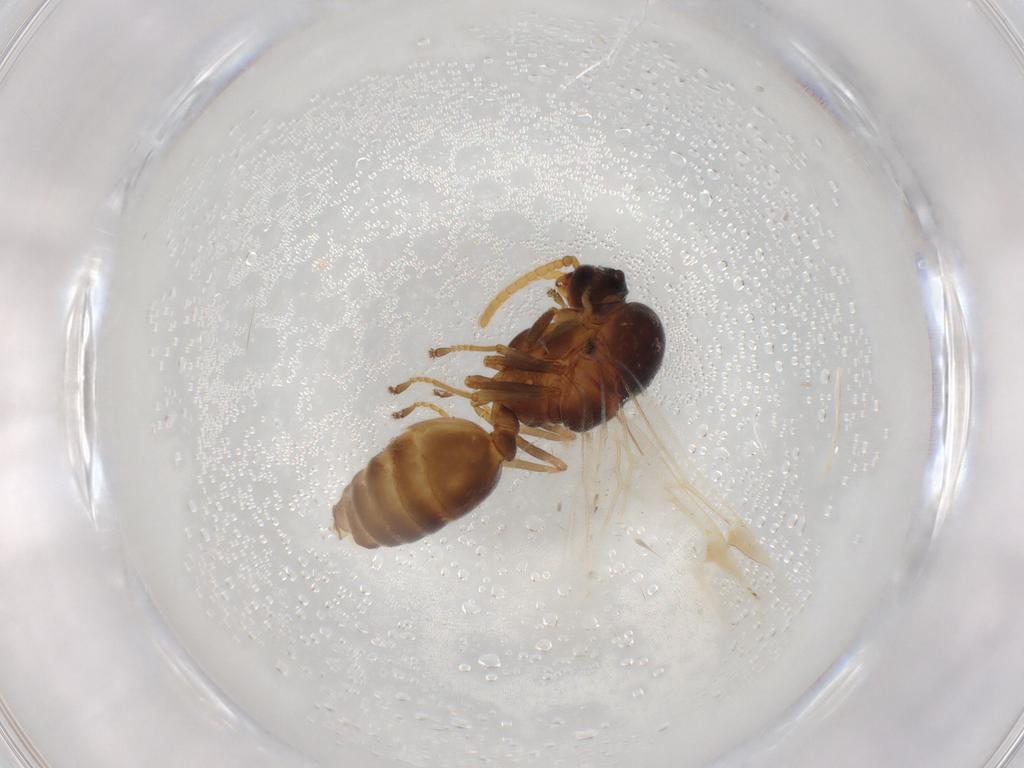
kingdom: Animalia
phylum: Arthropoda
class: Insecta
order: Hymenoptera
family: Formicidae
